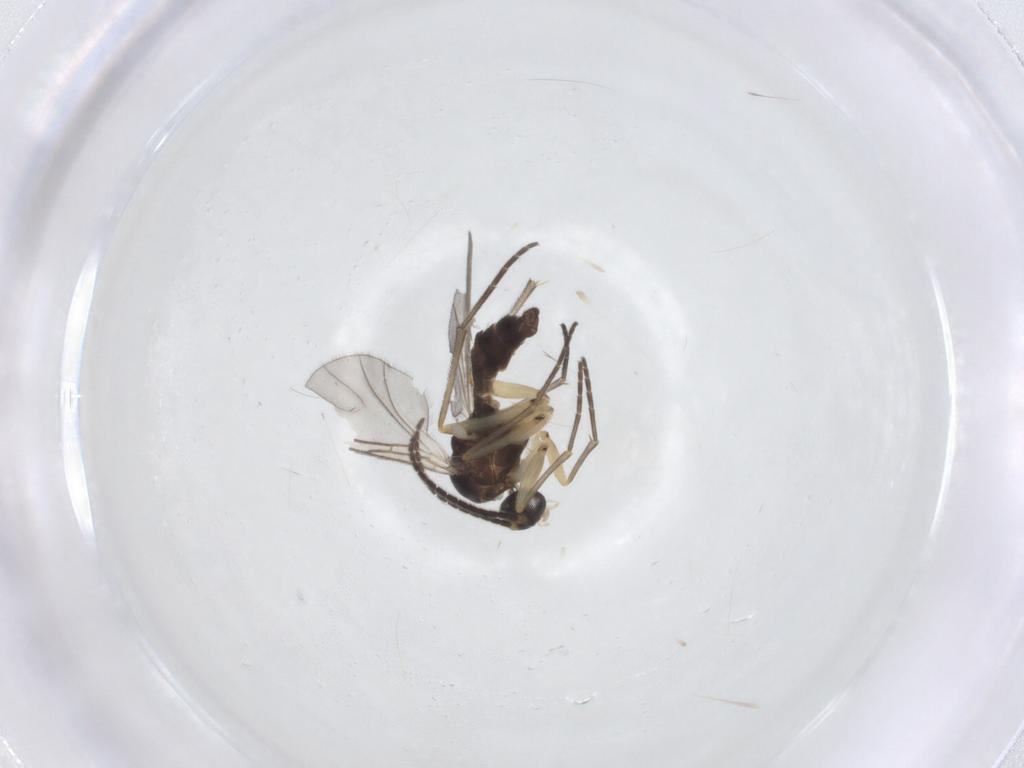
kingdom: Animalia
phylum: Arthropoda
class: Insecta
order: Diptera
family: Sciaridae
